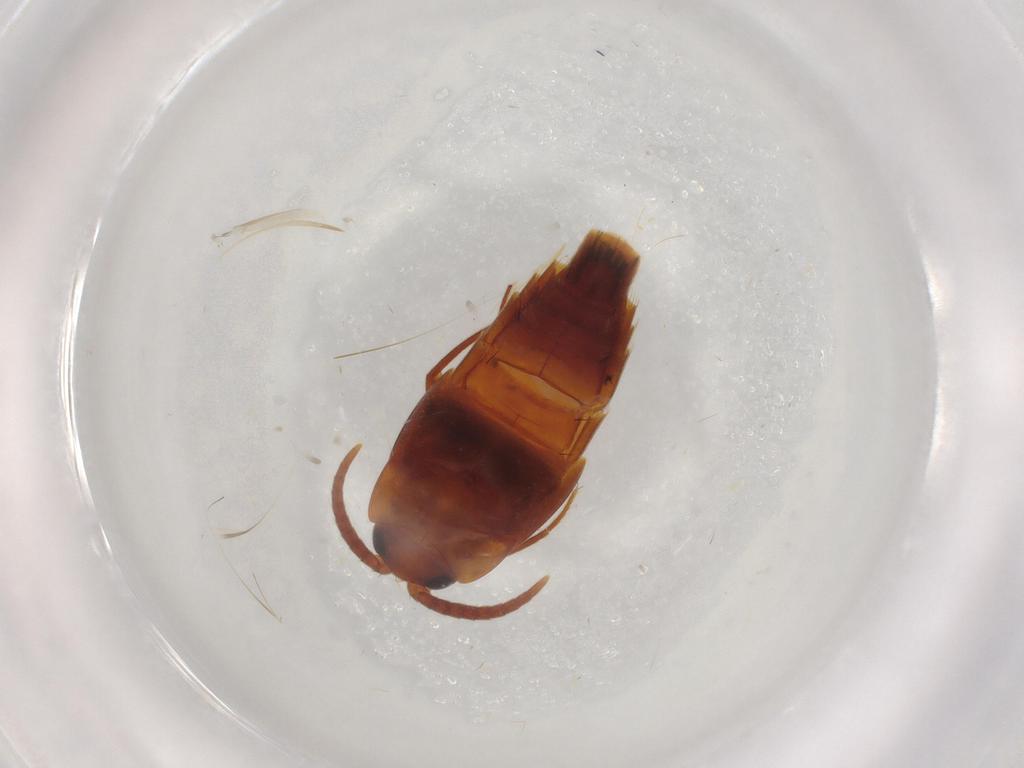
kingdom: Animalia
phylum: Arthropoda
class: Insecta
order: Coleoptera
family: Staphylinidae
